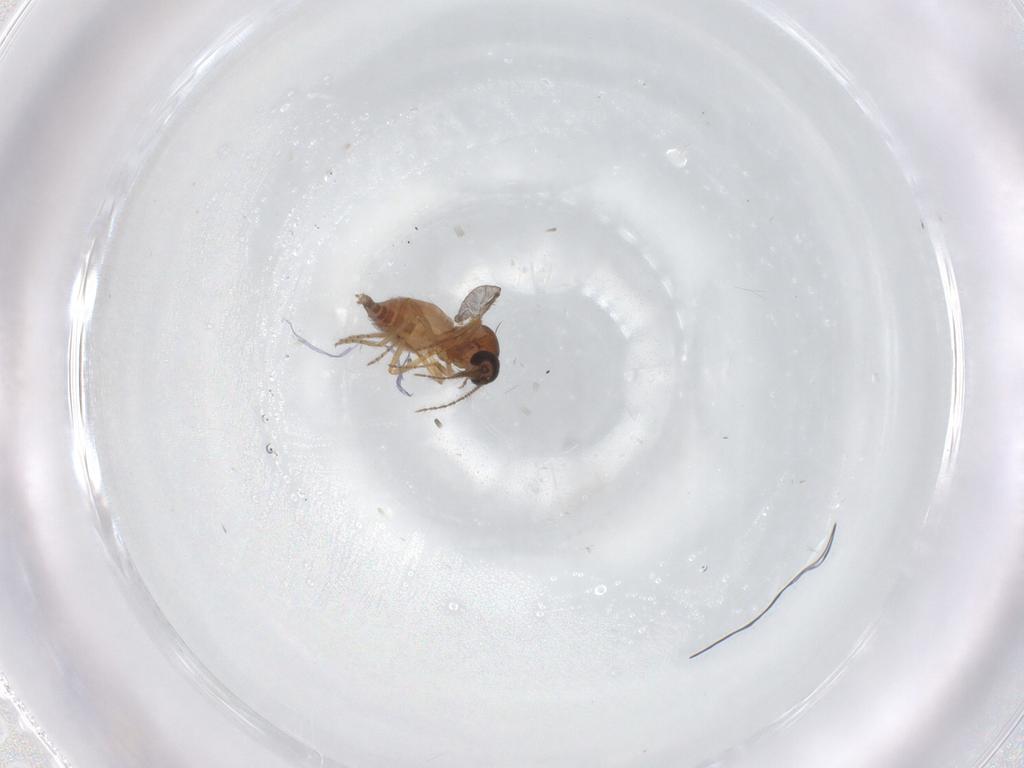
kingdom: Animalia
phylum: Arthropoda
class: Insecta
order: Diptera
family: Ceratopogonidae
